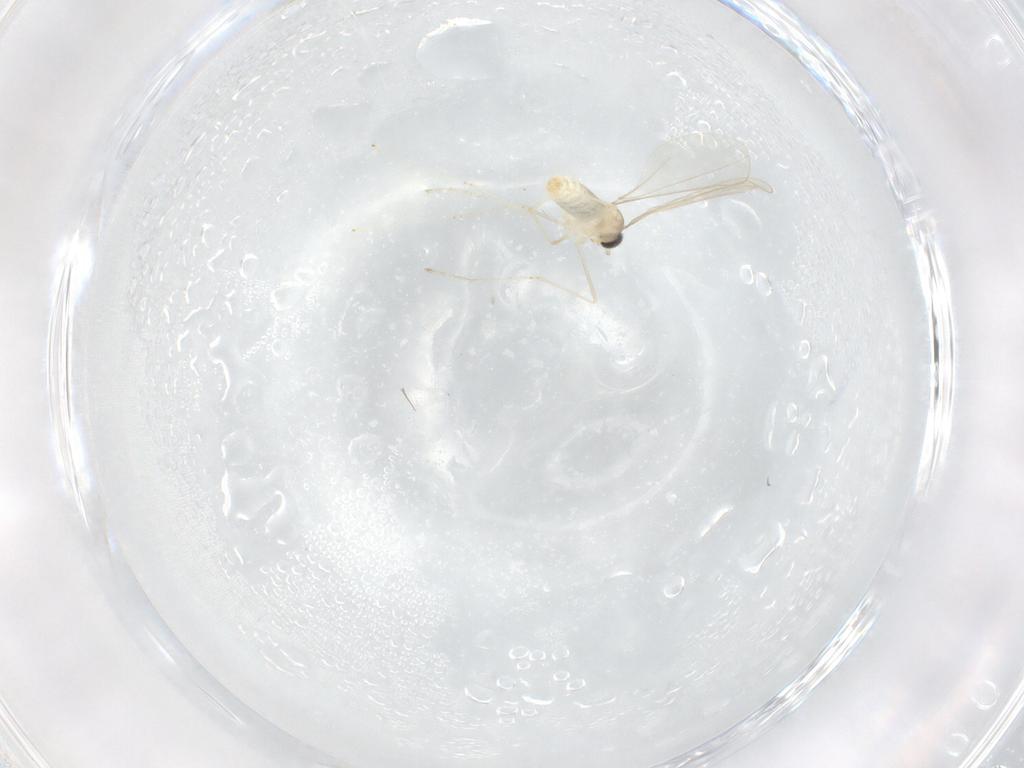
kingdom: Animalia
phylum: Arthropoda
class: Insecta
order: Diptera
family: Cecidomyiidae
